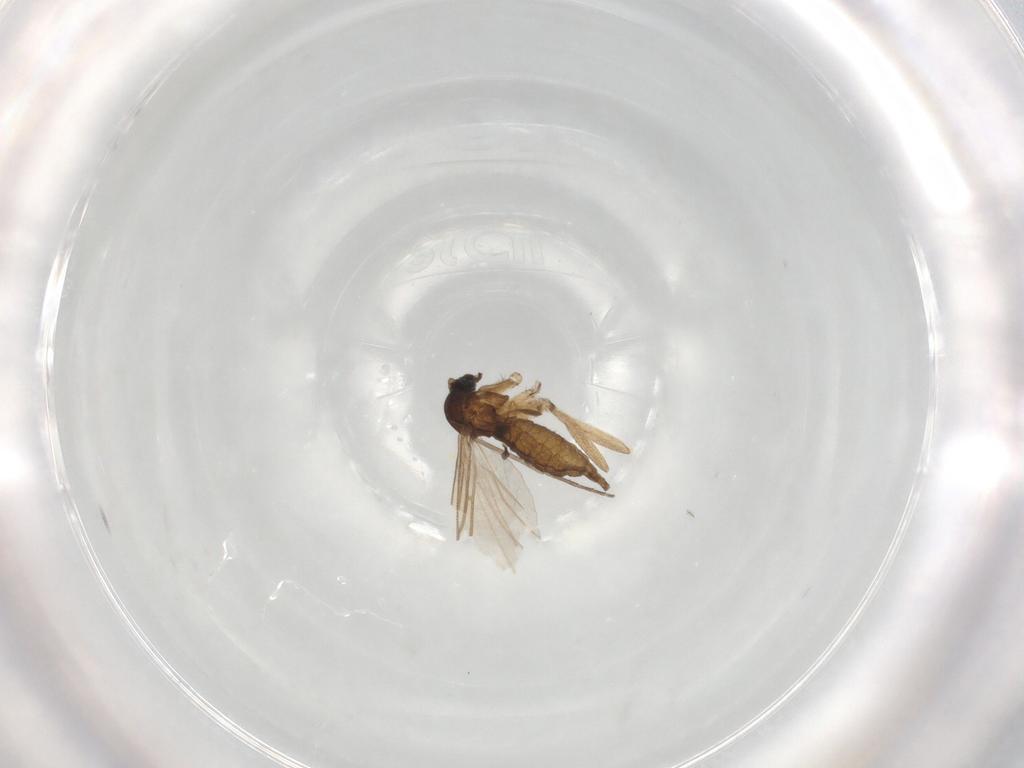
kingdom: Animalia
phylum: Arthropoda
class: Insecta
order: Diptera
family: Sciaridae
